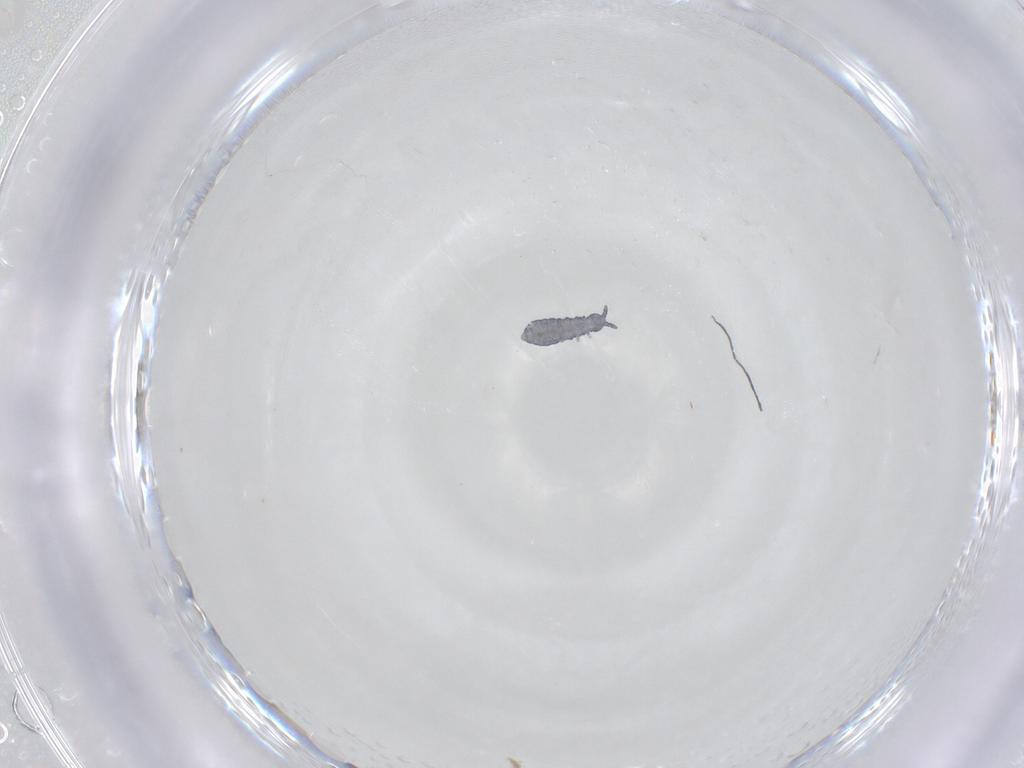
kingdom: Animalia
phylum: Arthropoda
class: Collembola
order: Poduromorpha
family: Hypogastruridae
